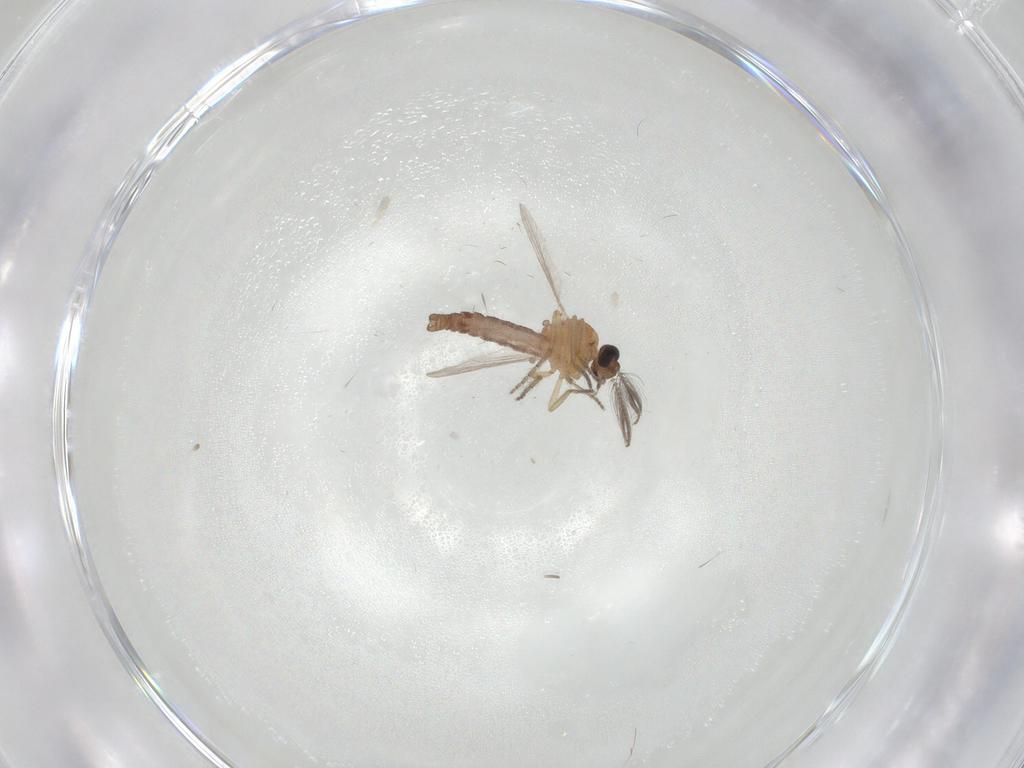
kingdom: Animalia
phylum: Arthropoda
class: Insecta
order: Diptera
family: Ceratopogonidae
